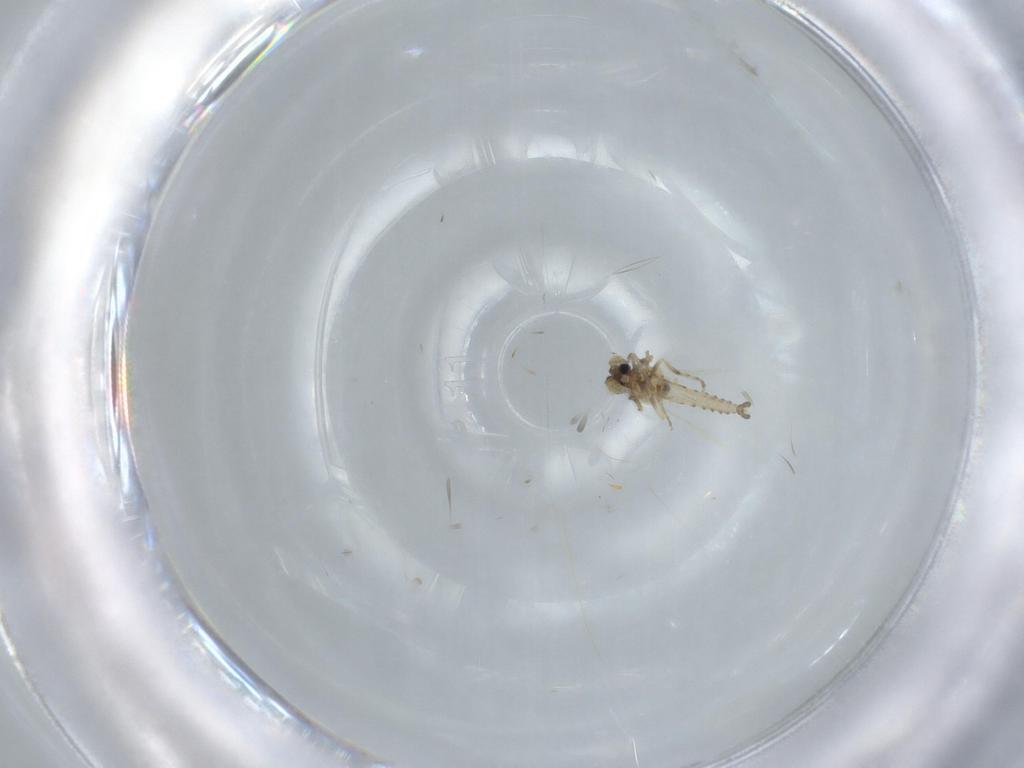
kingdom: Animalia
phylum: Arthropoda
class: Insecta
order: Diptera
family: Ceratopogonidae
